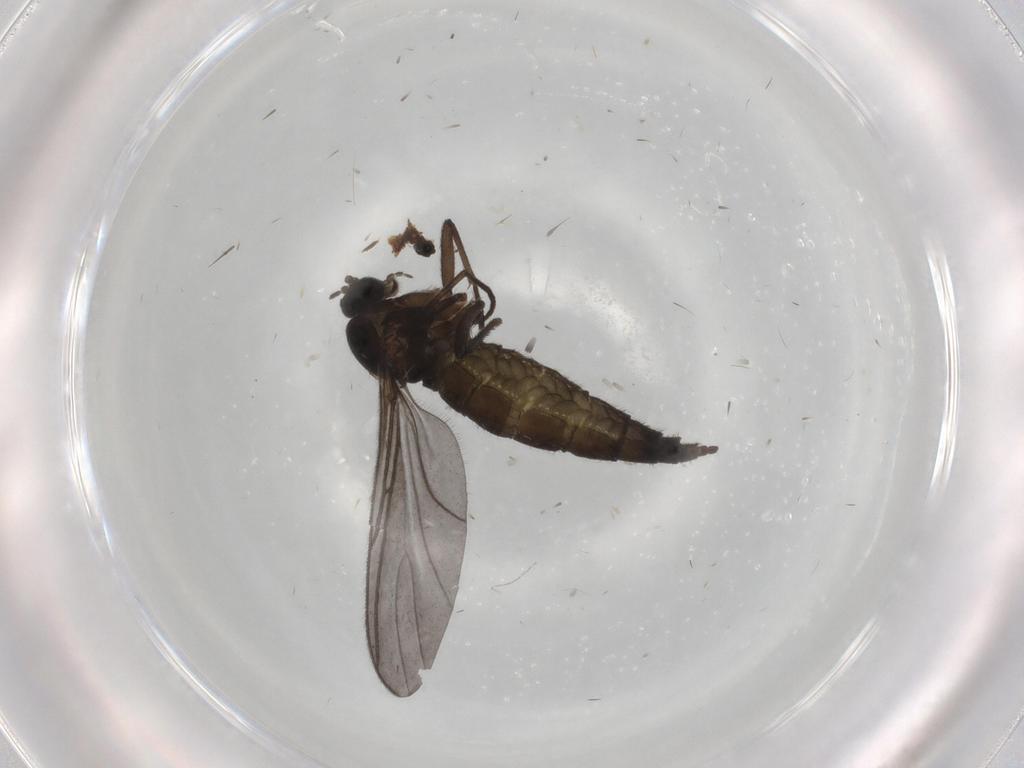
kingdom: Animalia
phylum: Arthropoda
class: Insecta
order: Diptera
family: Sciaridae
